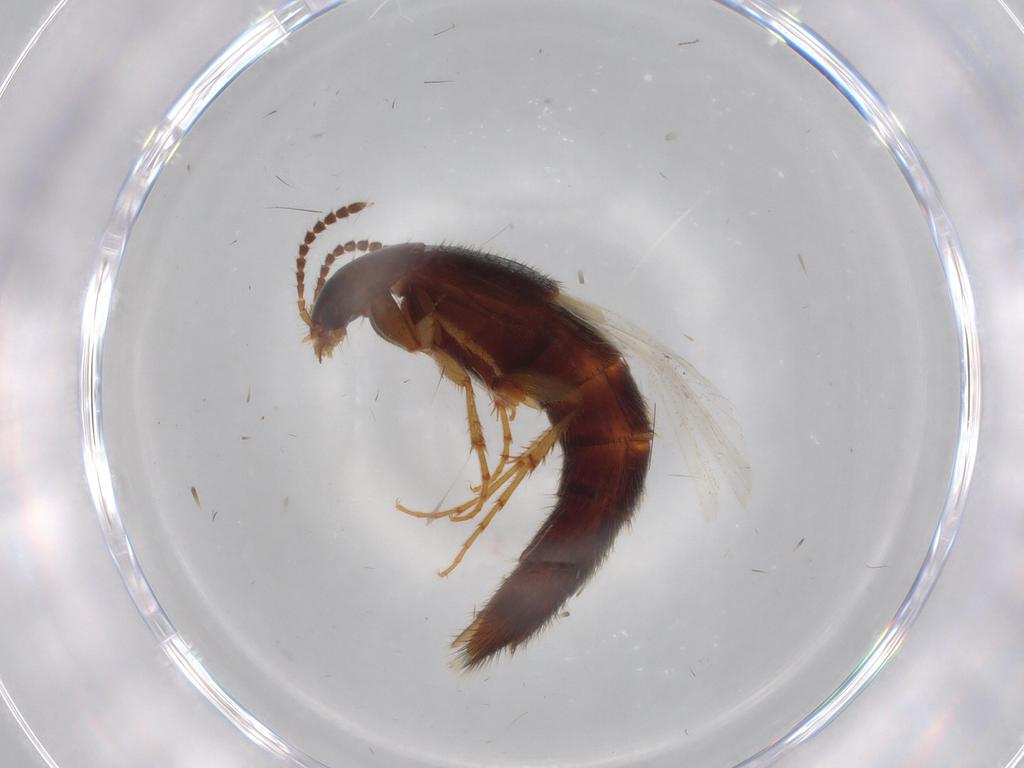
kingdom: Animalia
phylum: Arthropoda
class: Insecta
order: Coleoptera
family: Staphylinidae
